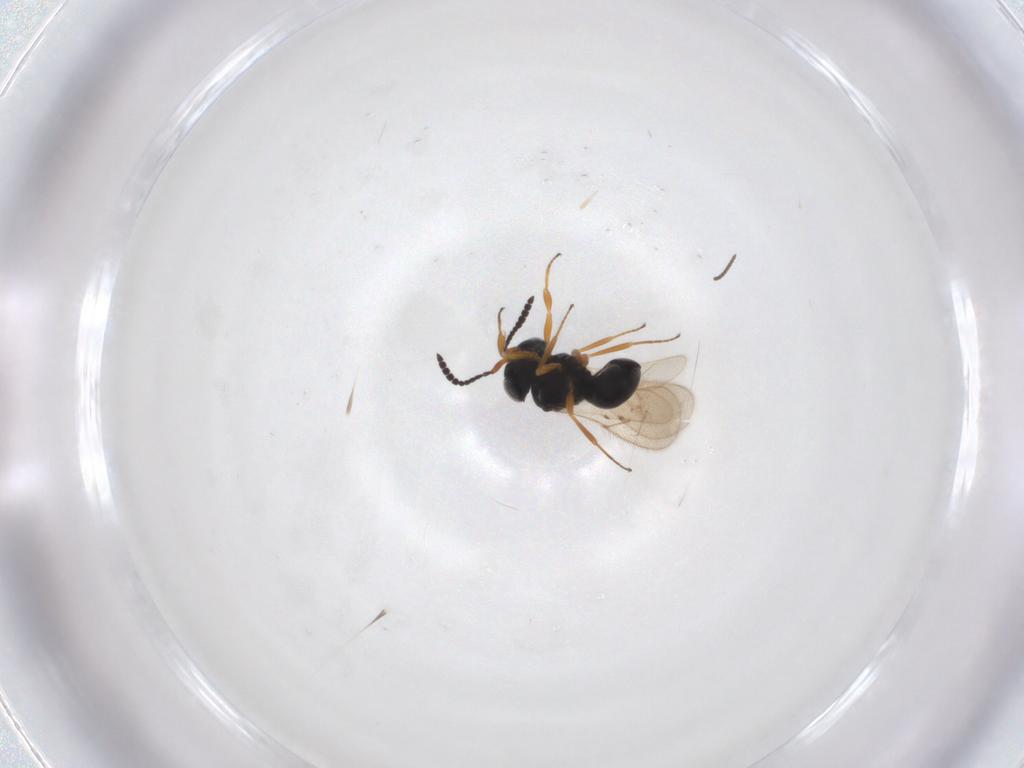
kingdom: Animalia
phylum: Arthropoda
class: Insecta
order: Hymenoptera
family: Scelionidae
